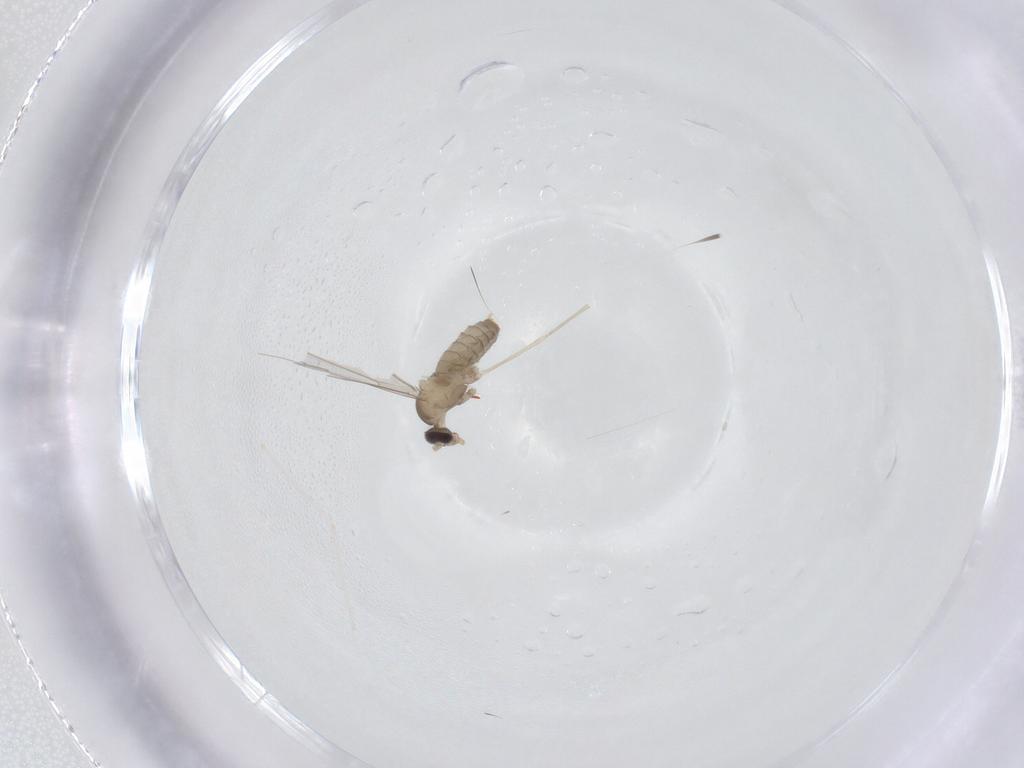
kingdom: Animalia
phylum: Arthropoda
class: Insecta
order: Diptera
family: Cecidomyiidae
